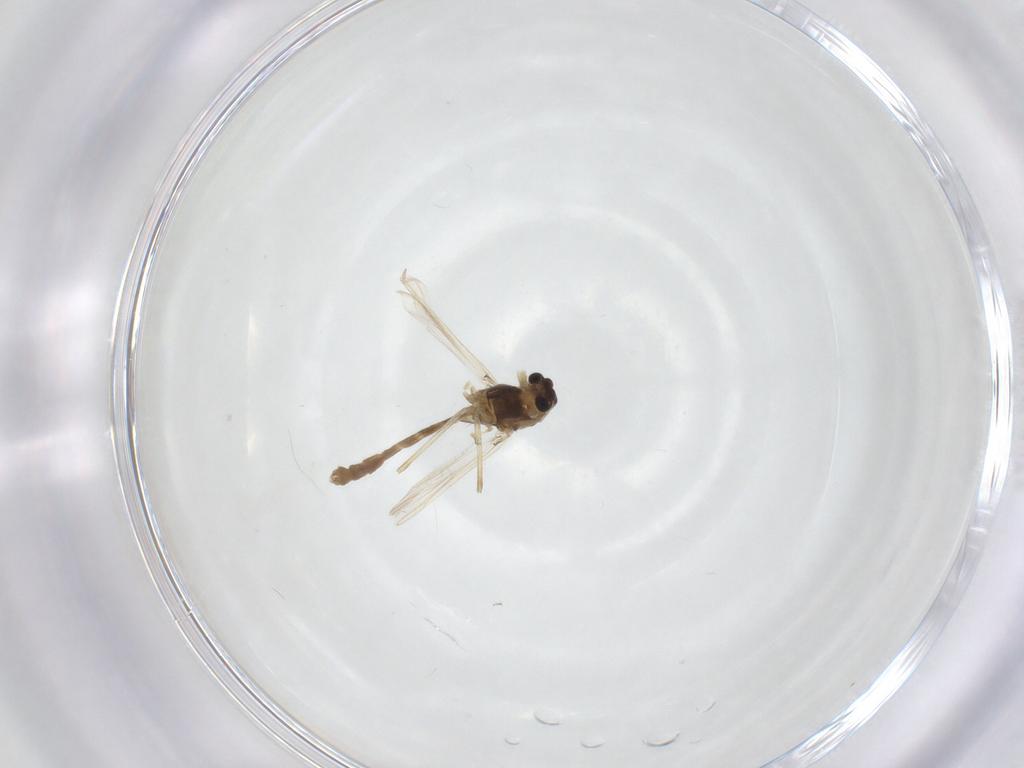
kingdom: Animalia
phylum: Arthropoda
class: Insecta
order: Diptera
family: Chironomidae
